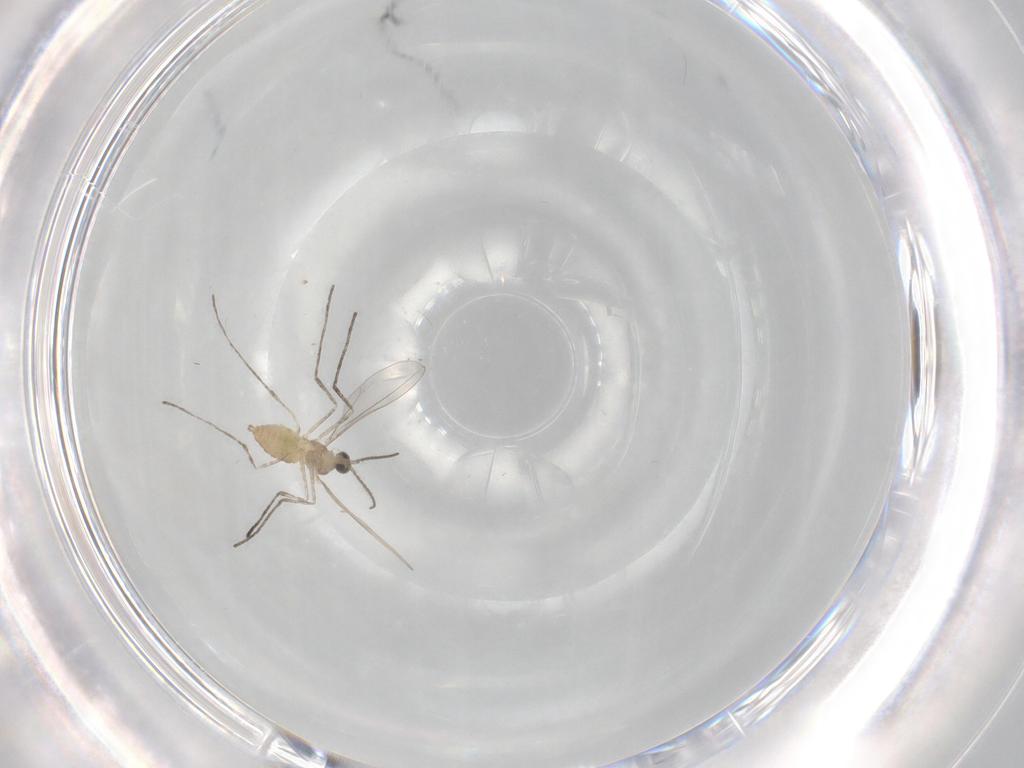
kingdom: Animalia
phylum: Arthropoda
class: Insecta
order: Diptera
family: Cecidomyiidae
